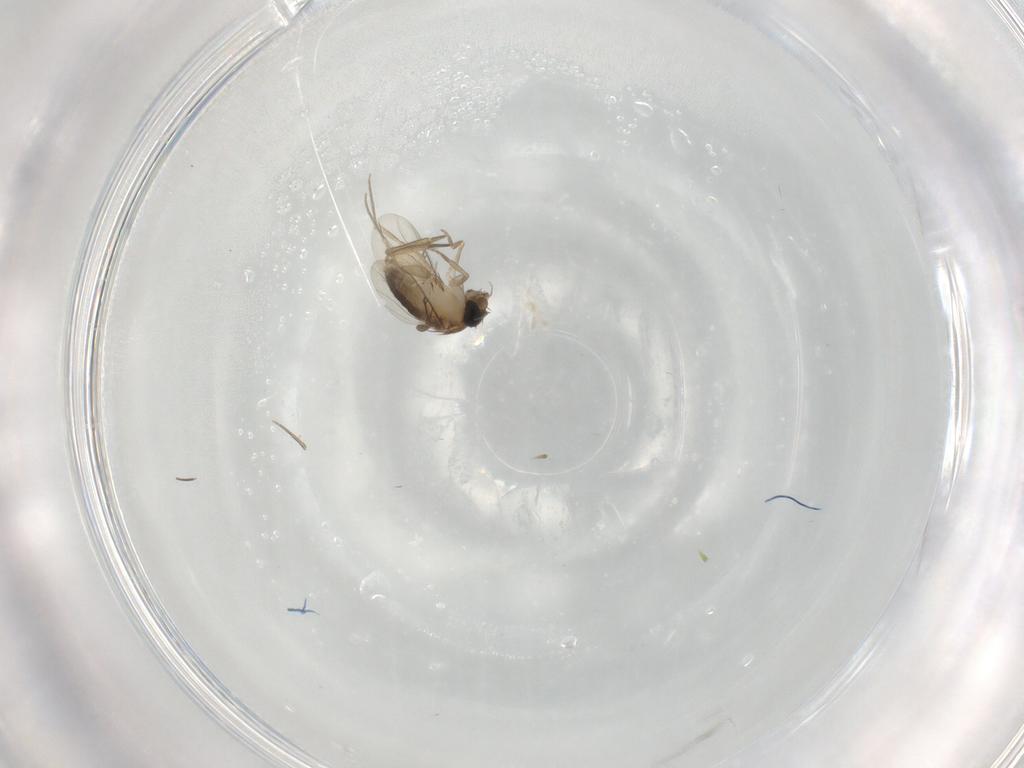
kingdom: Animalia
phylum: Arthropoda
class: Insecta
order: Diptera
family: Phoridae
